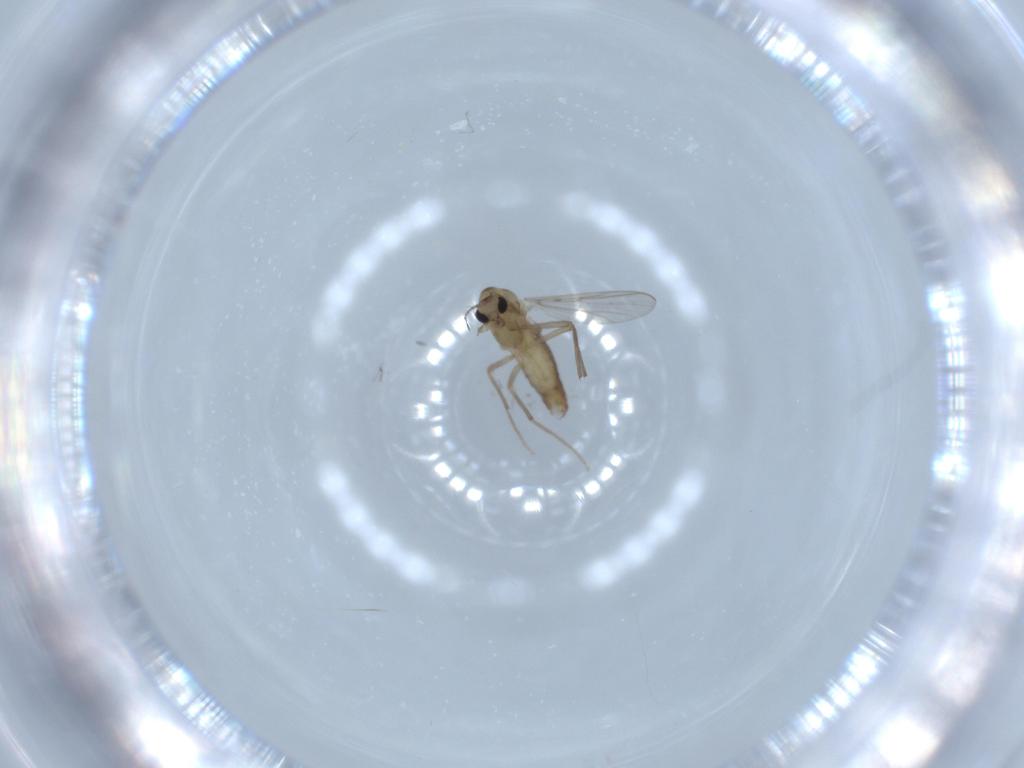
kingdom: Animalia
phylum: Arthropoda
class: Insecta
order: Diptera
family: Chironomidae
